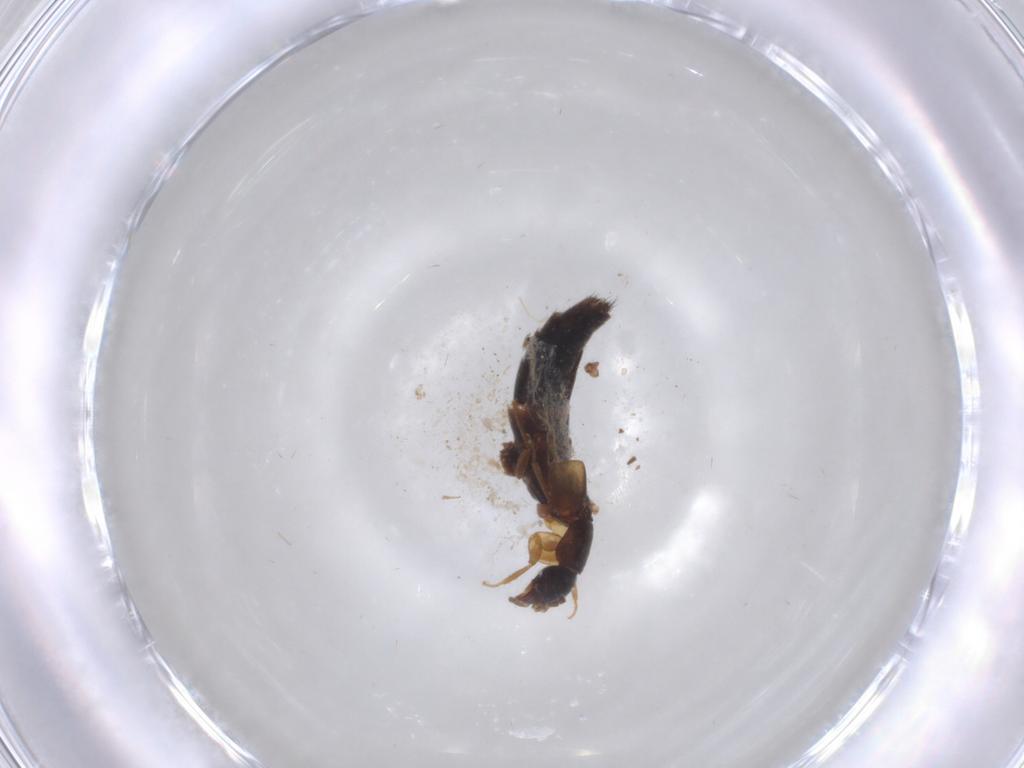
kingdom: Animalia
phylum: Arthropoda
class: Insecta
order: Coleoptera
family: Staphylinidae
